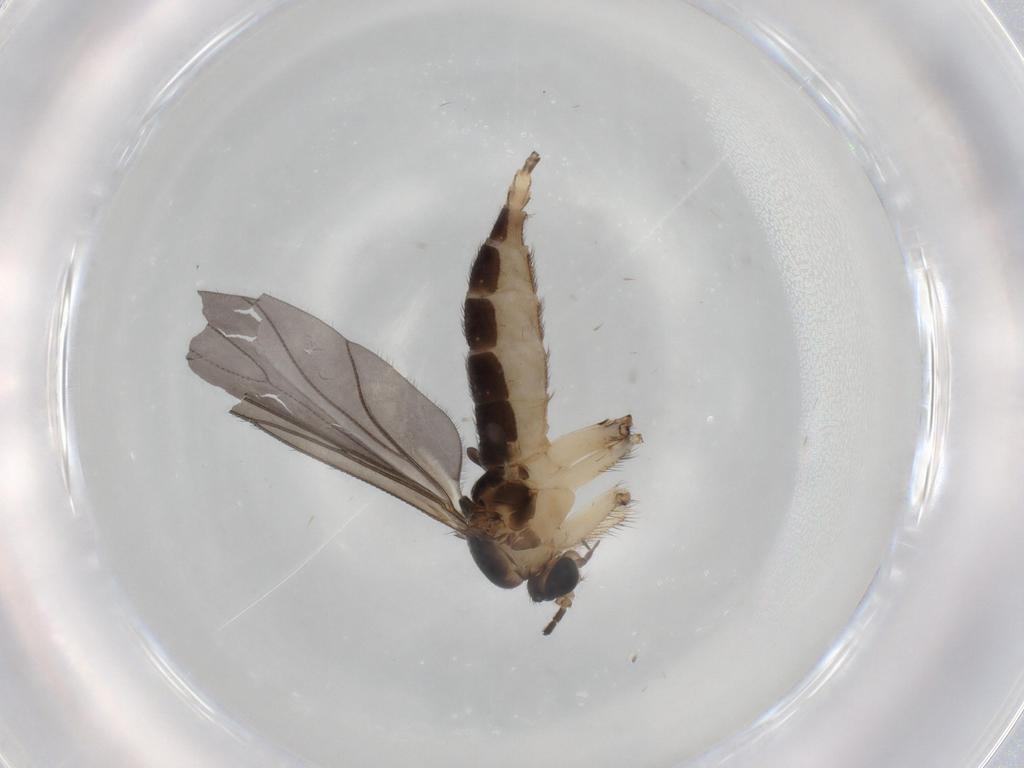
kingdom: Animalia
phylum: Arthropoda
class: Insecta
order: Diptera
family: Sciaridae
